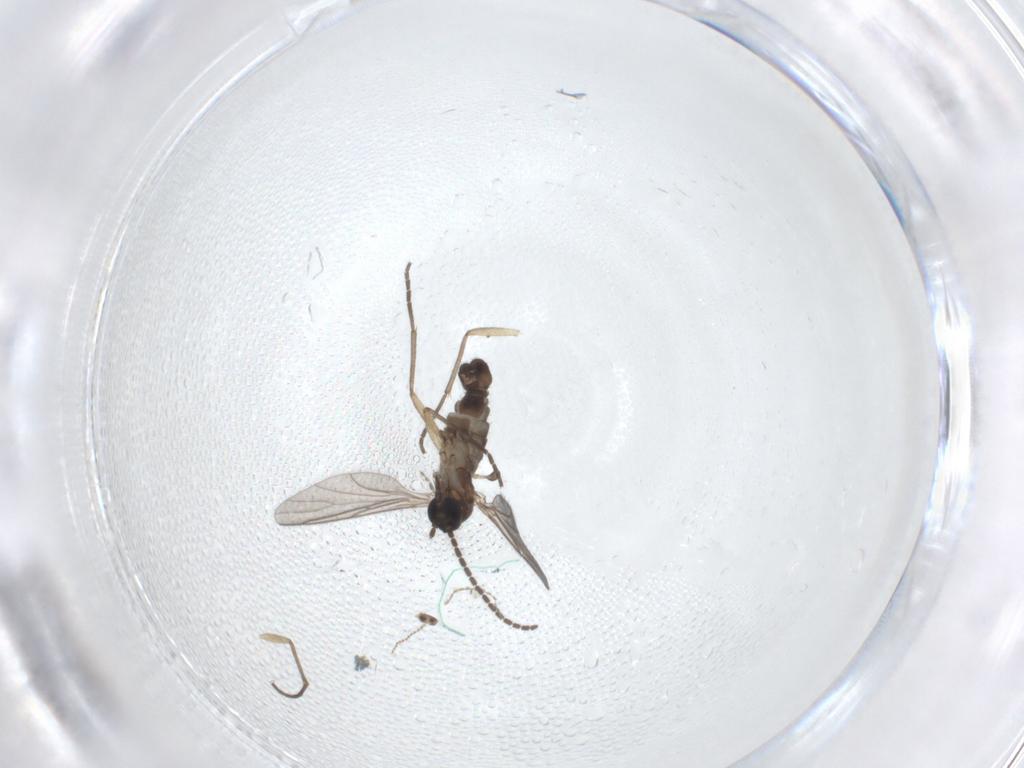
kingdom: Animalia
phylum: Arthropoda
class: Insecta
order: Diptera
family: Sciaridae
